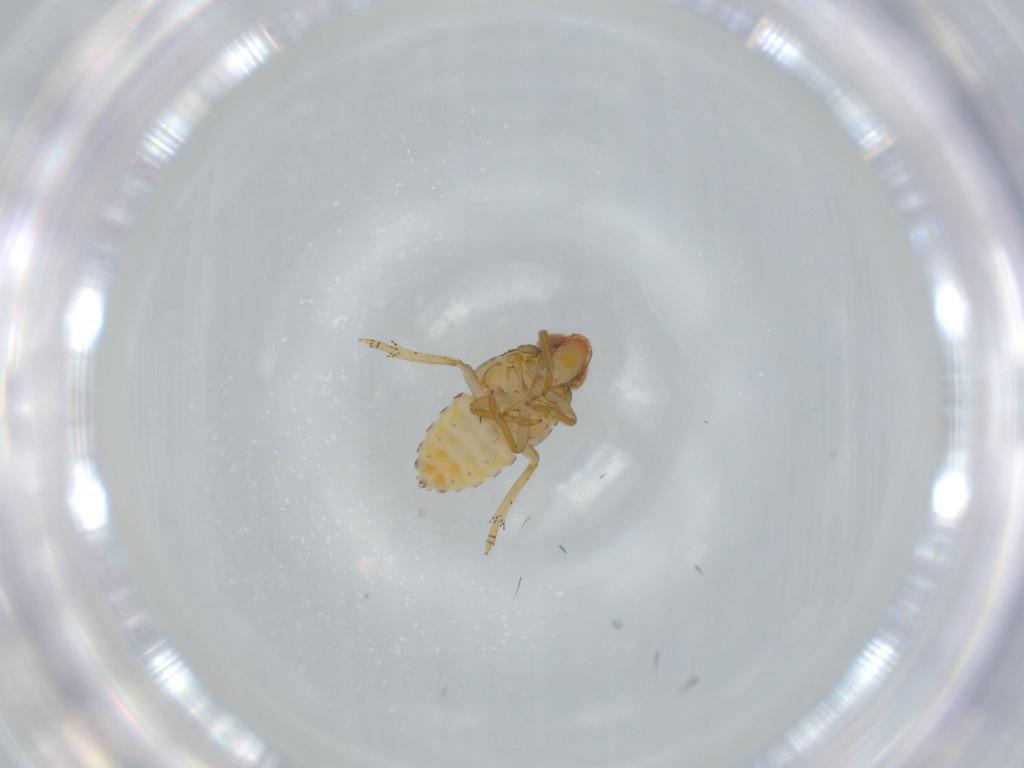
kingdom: Animalia
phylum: Arthropoda
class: Insecta
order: Hemiptera
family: Fulgoroidea_incertae_sedis
